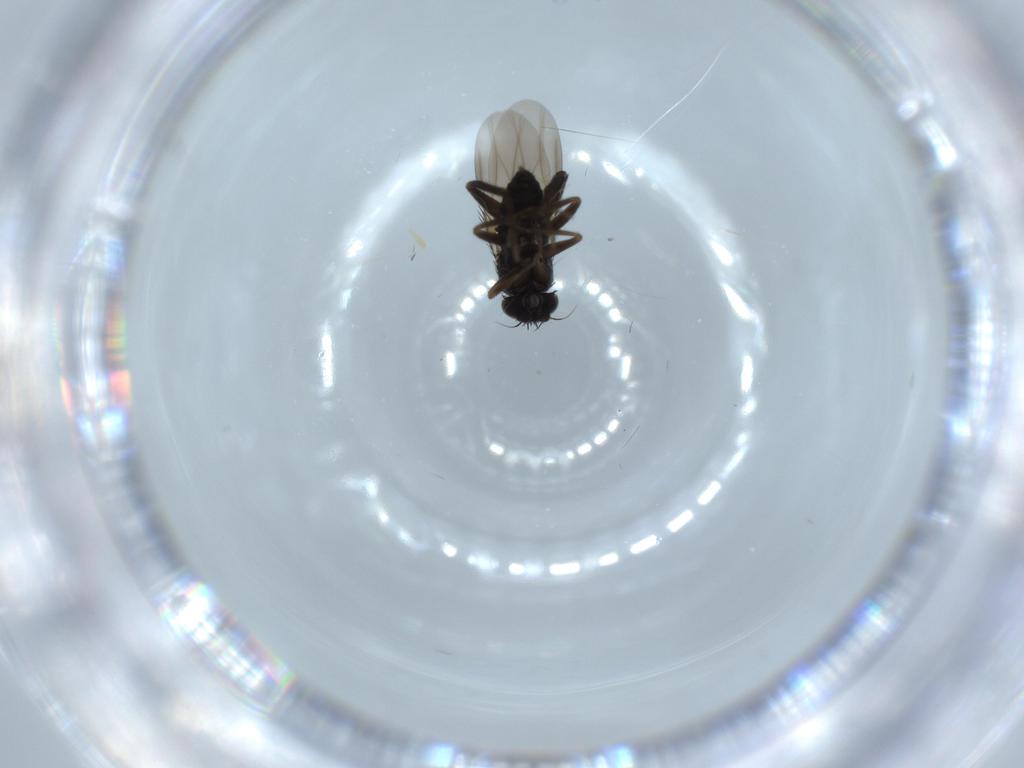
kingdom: Animalia
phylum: Arthropoda
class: Insecta
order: Diptera
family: Phoridae
